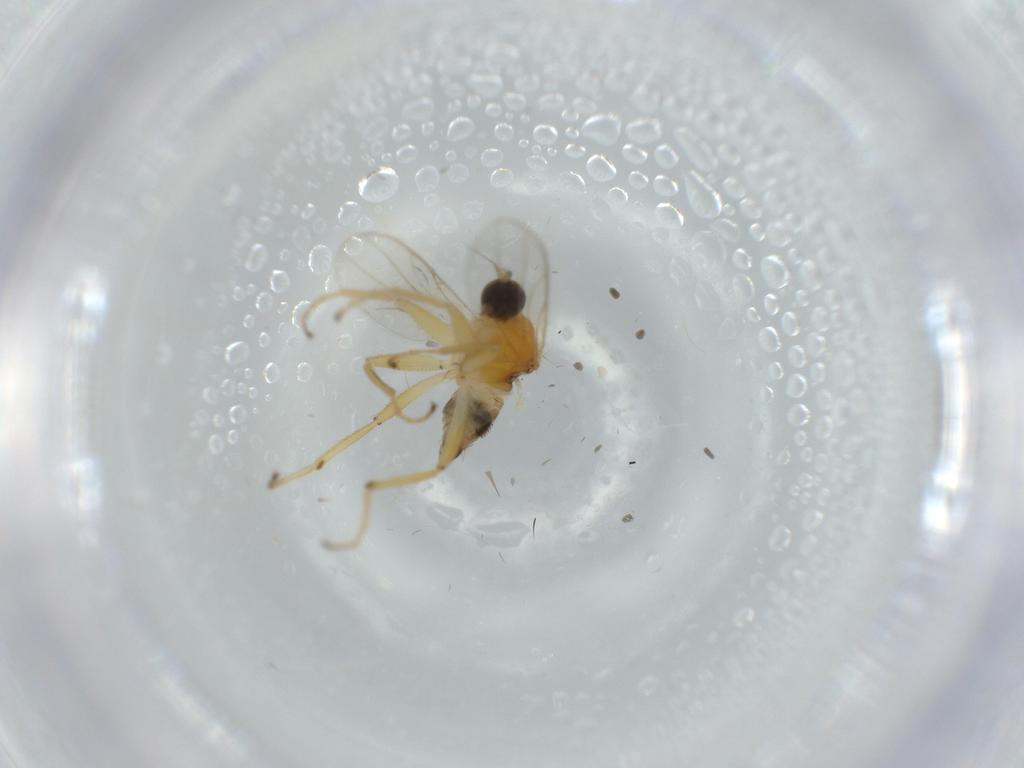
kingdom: Animalia
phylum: Arthropoda
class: Insecta
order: Diptera
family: Hybotidae
